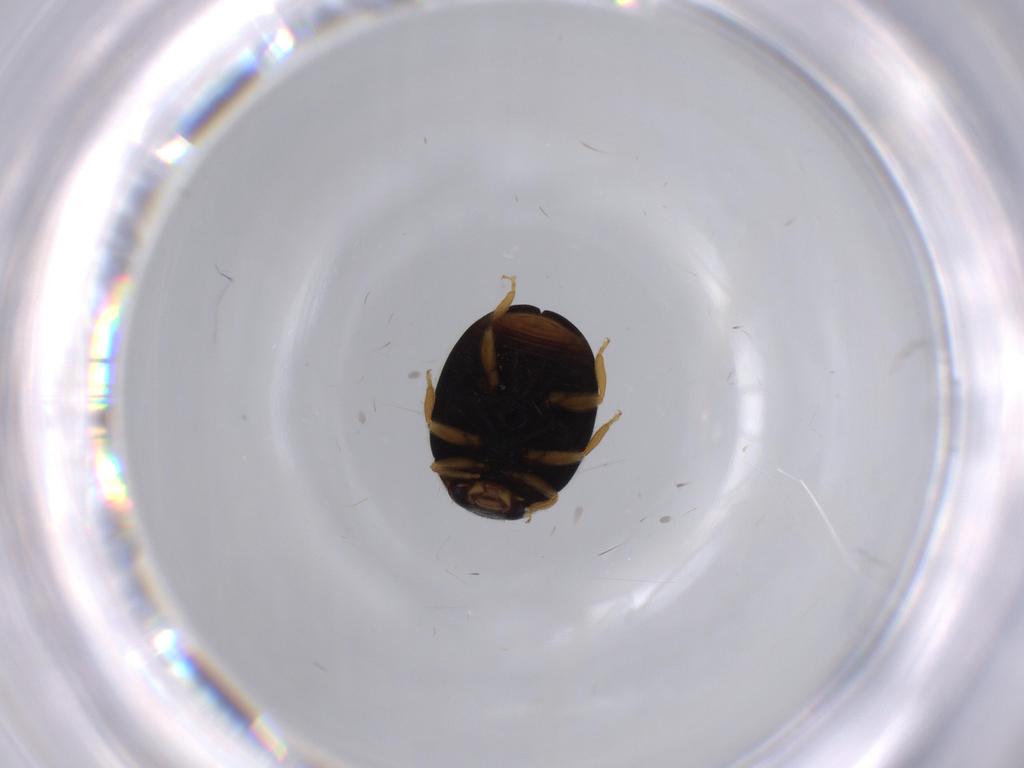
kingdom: Animalia
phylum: Arthropoda
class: Insecta
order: Coleoptera
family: Coccinellidae
